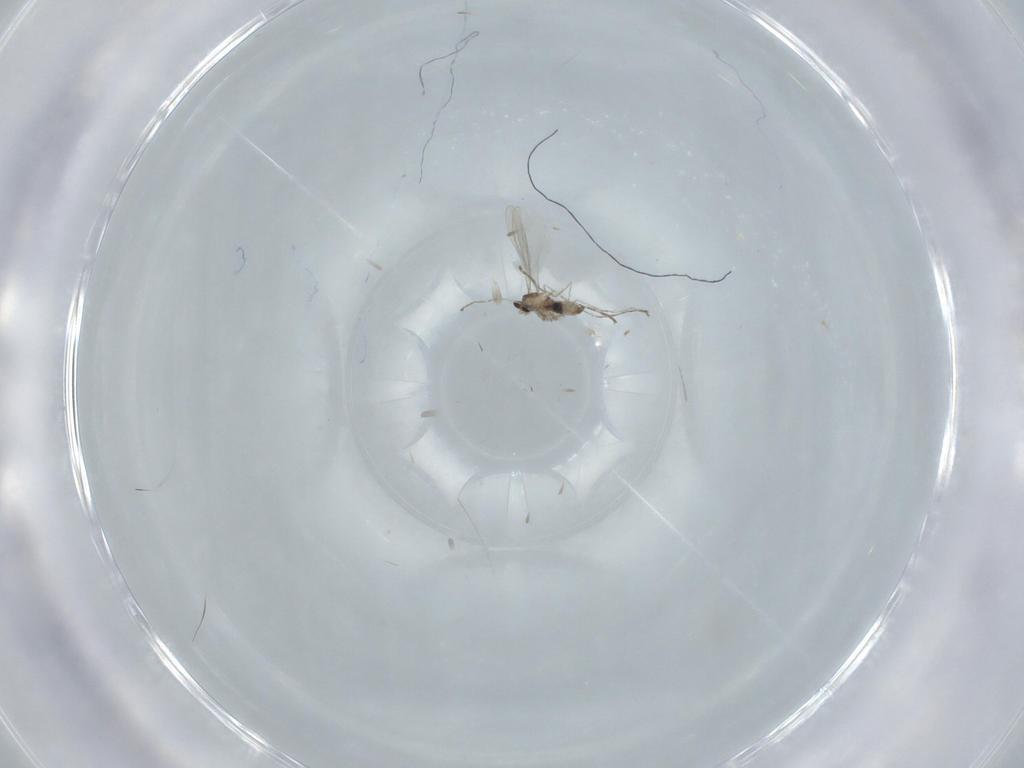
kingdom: Animalia
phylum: Arthropoda
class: Insecta
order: Diptera
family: Cecidomyiidae
